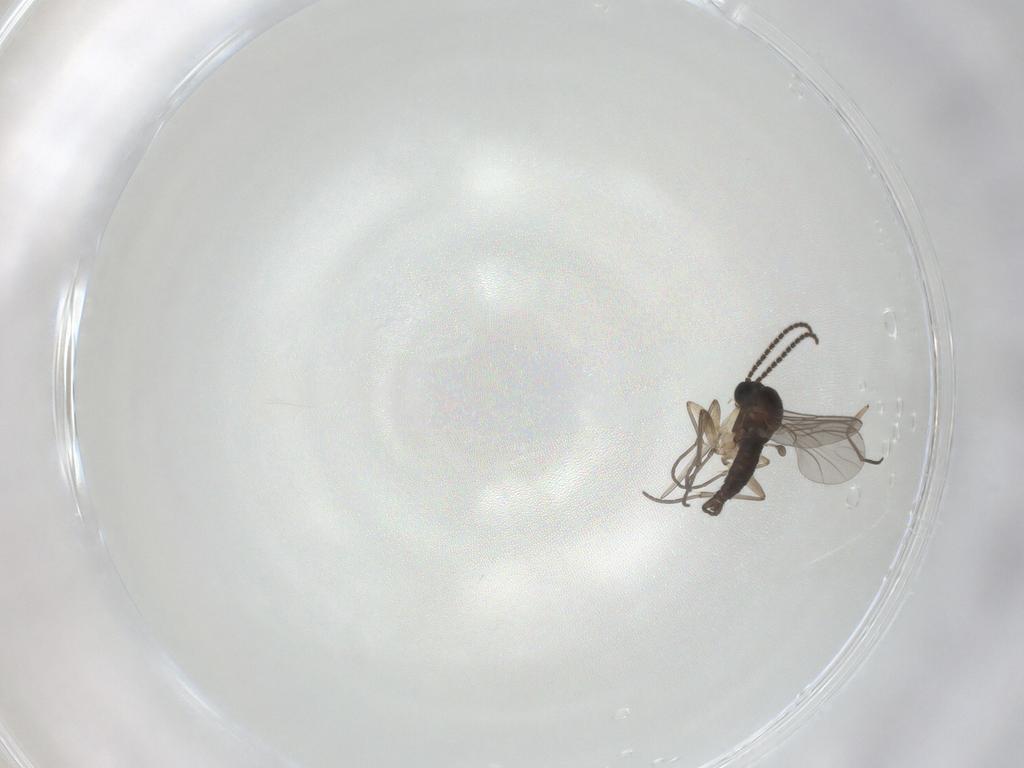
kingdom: Animalia
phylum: Arthropoda
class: Insecta
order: Diptera
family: Sciaridae
